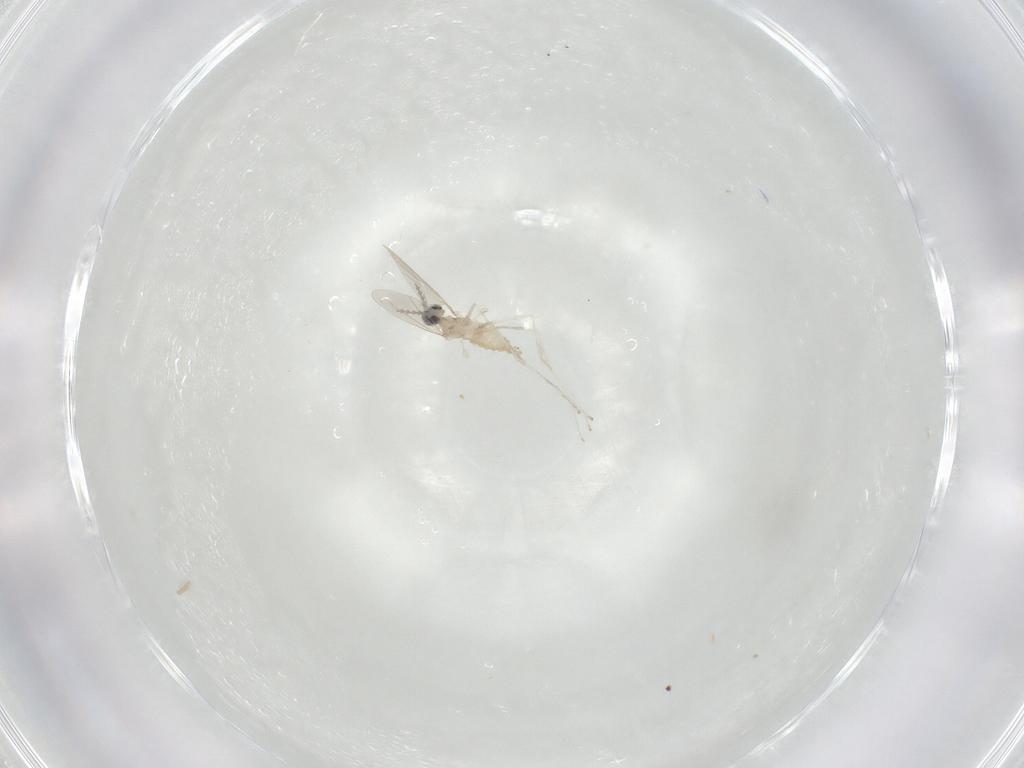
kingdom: Animalia
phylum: Arthropoda
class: Insecta
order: Diptera
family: Sphaeroceridae
